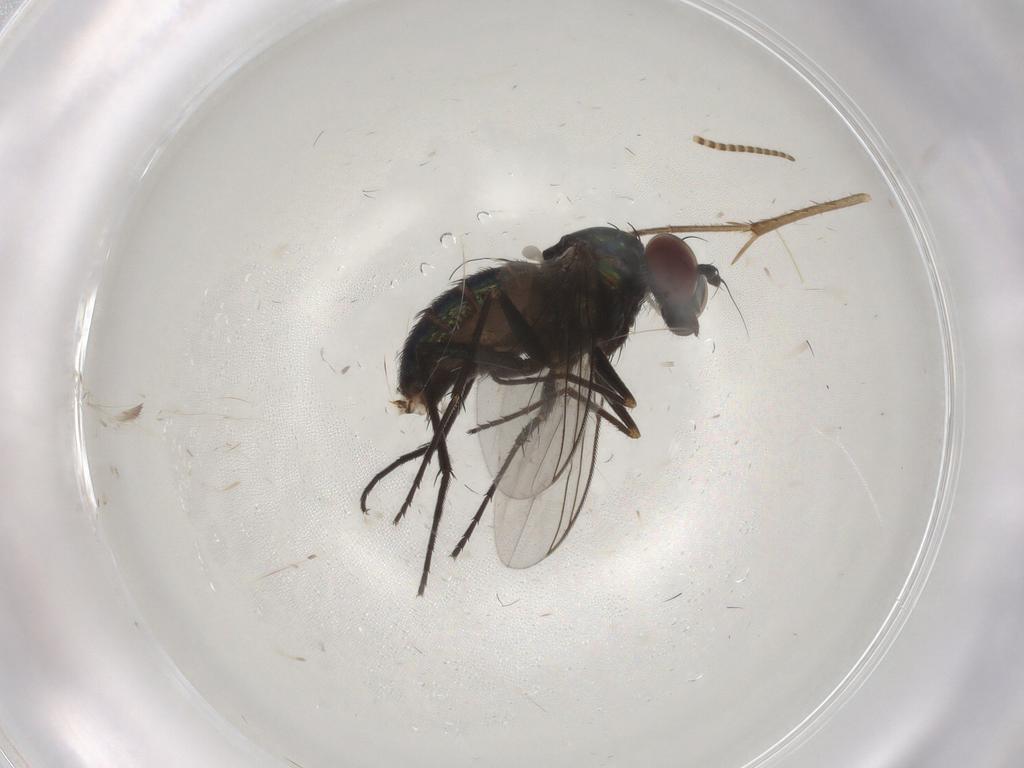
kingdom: Animalia
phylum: Arthropoda
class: Insecta
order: Diptera
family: Dolichopodidae
